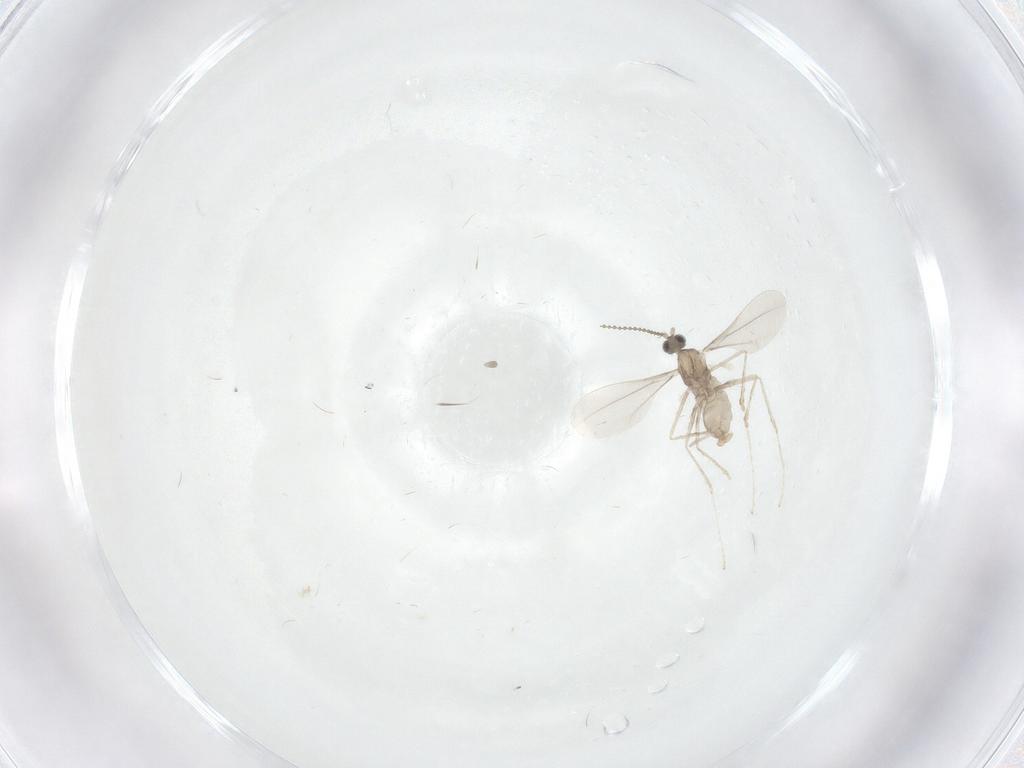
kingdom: Animalia
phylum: Arthropoda
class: Insecta
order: Diptera
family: Cecidomyiidae
